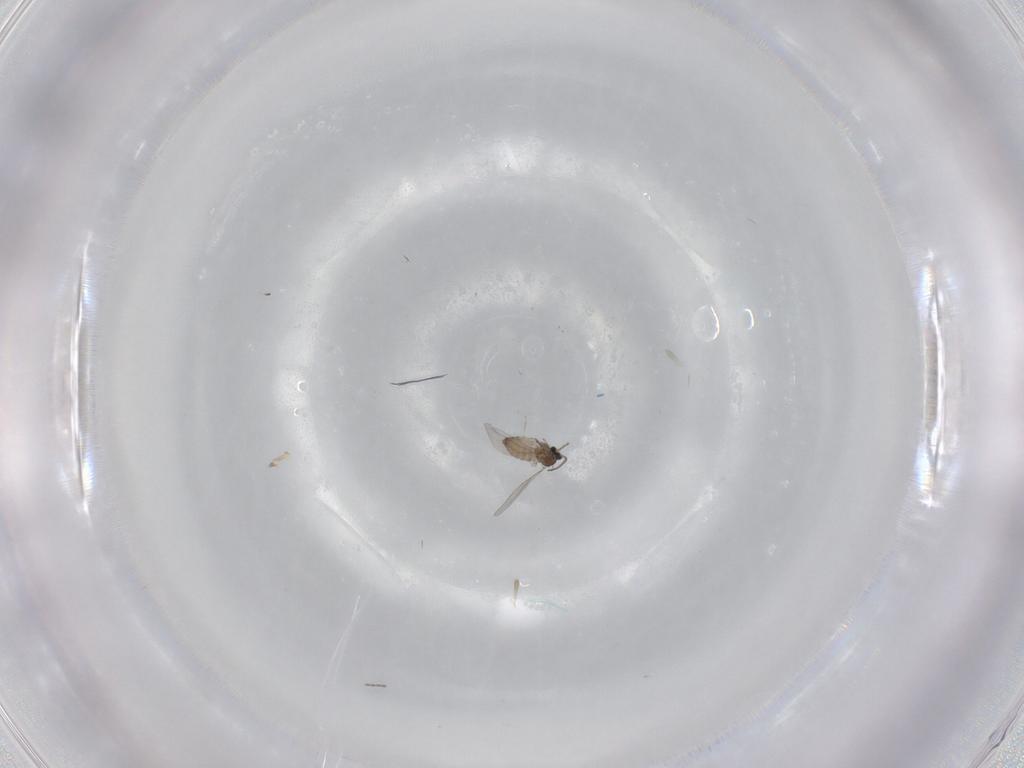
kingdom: Animalia
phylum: Arthropoda
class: Insecta
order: Diptera
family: Cecidomyiidae
